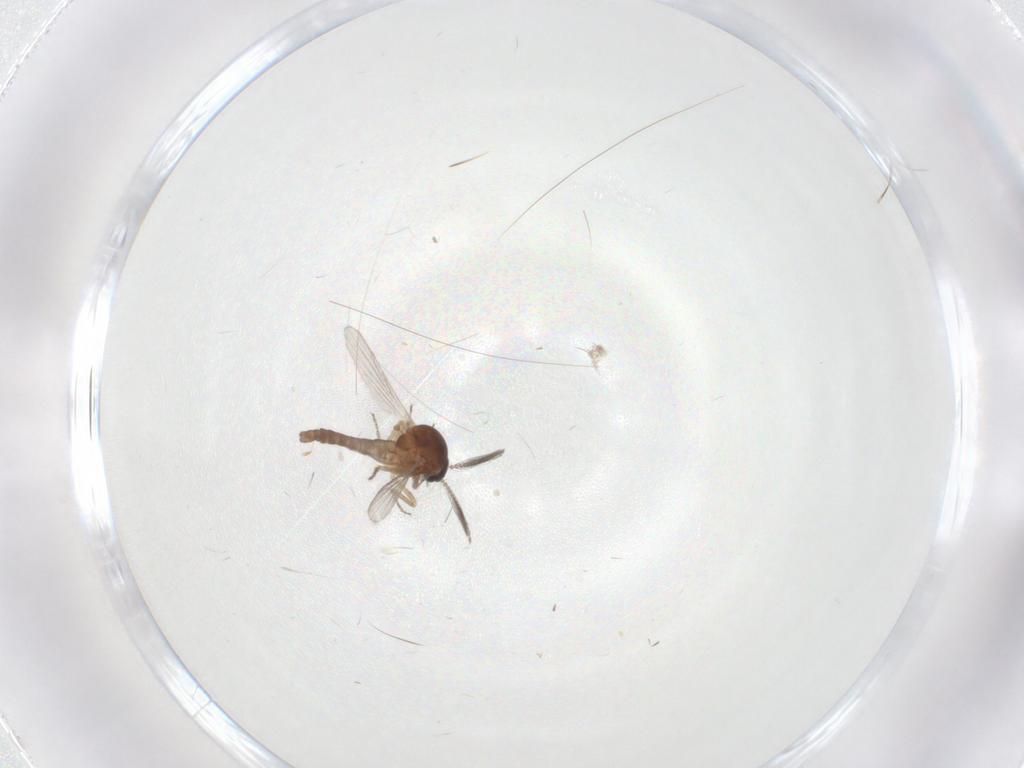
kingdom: Animalia
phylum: Arthropoda
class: Insecta
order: Diptera
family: Ceratopogonidae
